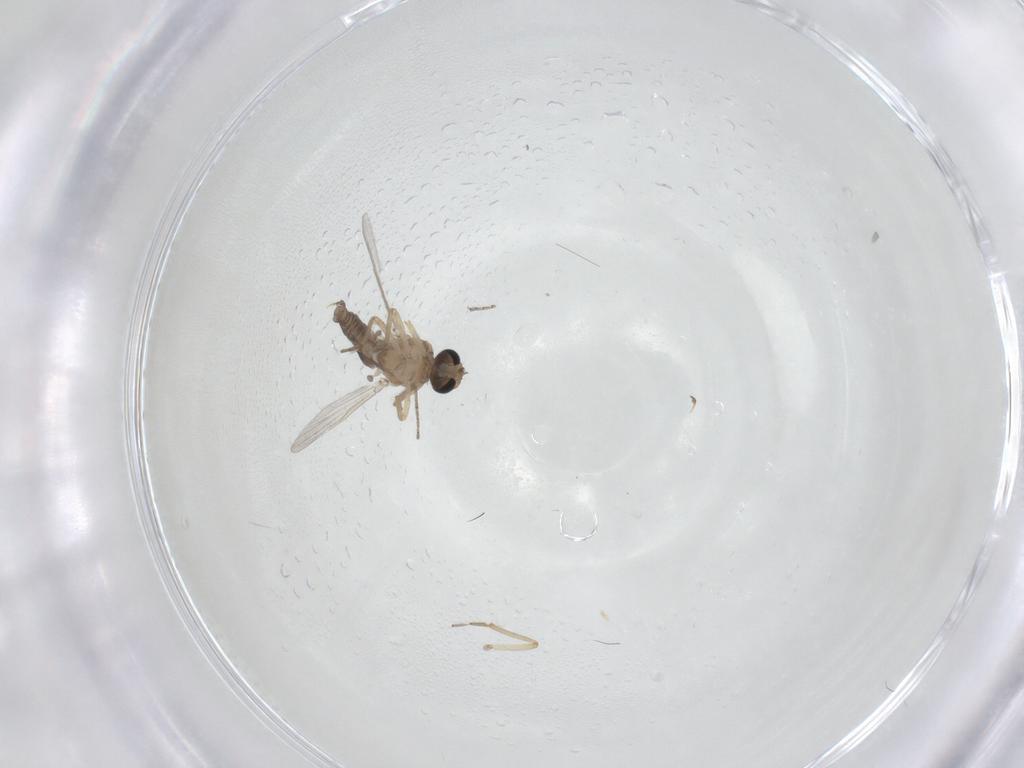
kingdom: Animalia
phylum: Arthropoda
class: Insecta
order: Diptera
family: Ceratopogonidae
